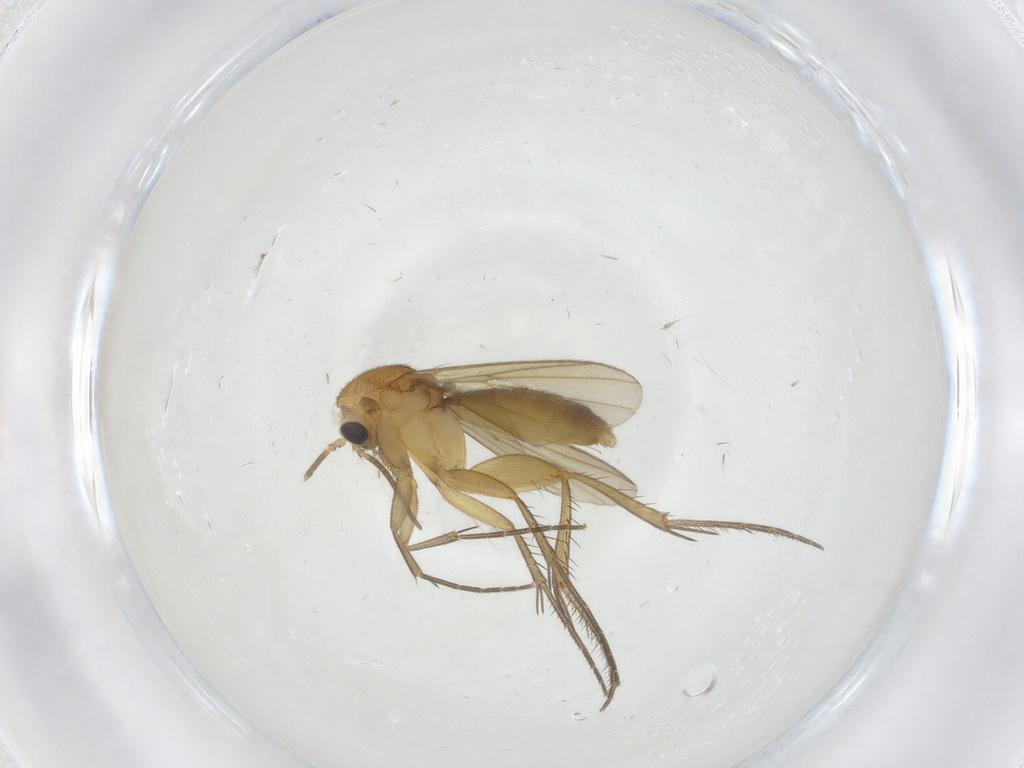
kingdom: Animalia
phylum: Arthropoda
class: Insecta
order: Diptera
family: Mycetophilidae
